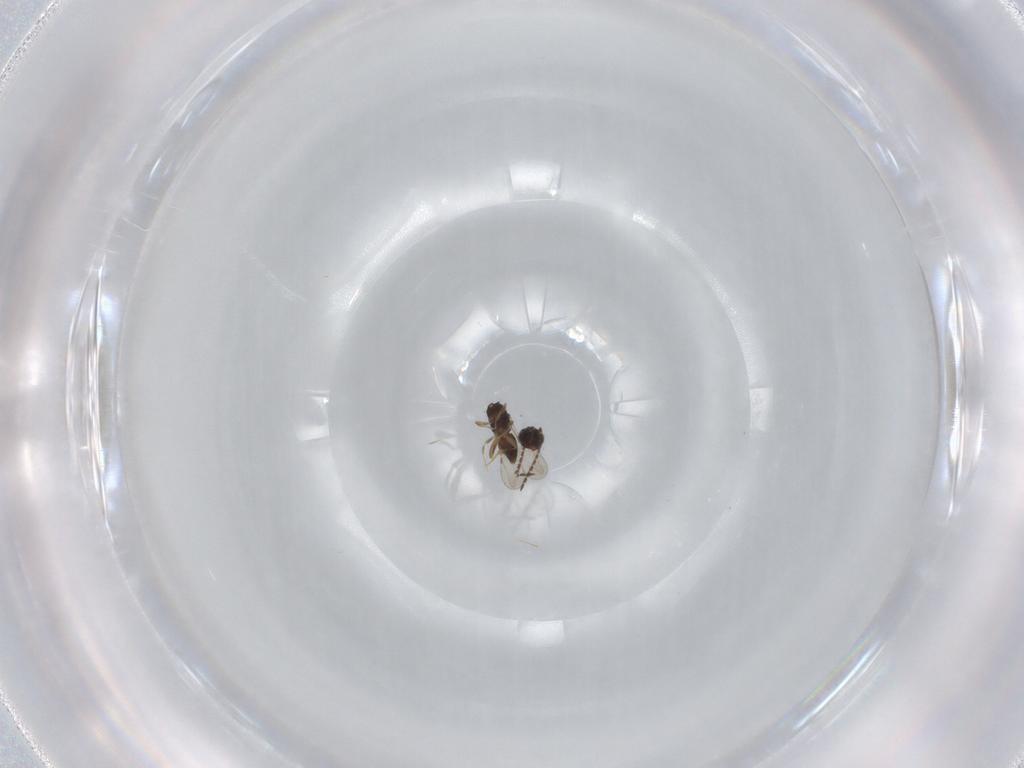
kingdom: Animalia
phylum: Arthropoda
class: Insecta
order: Hymenoptera
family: Ceraphronidae
